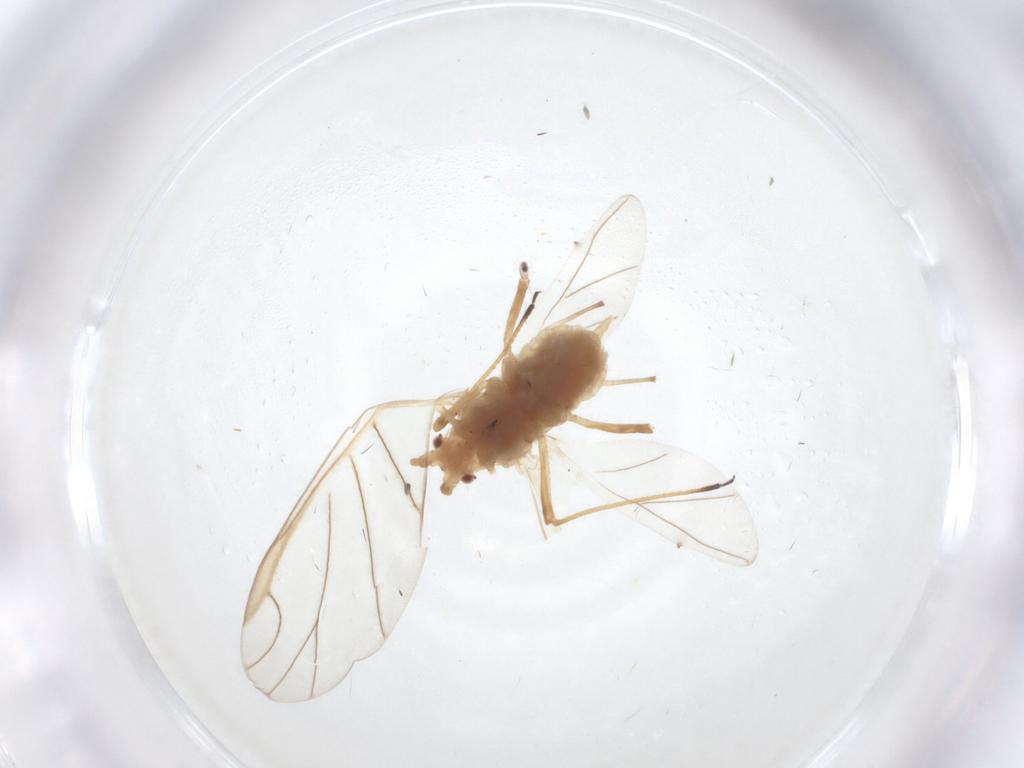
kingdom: Animalia
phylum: Arthropoda
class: Insecta
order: Hemiptera
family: Aphididae
